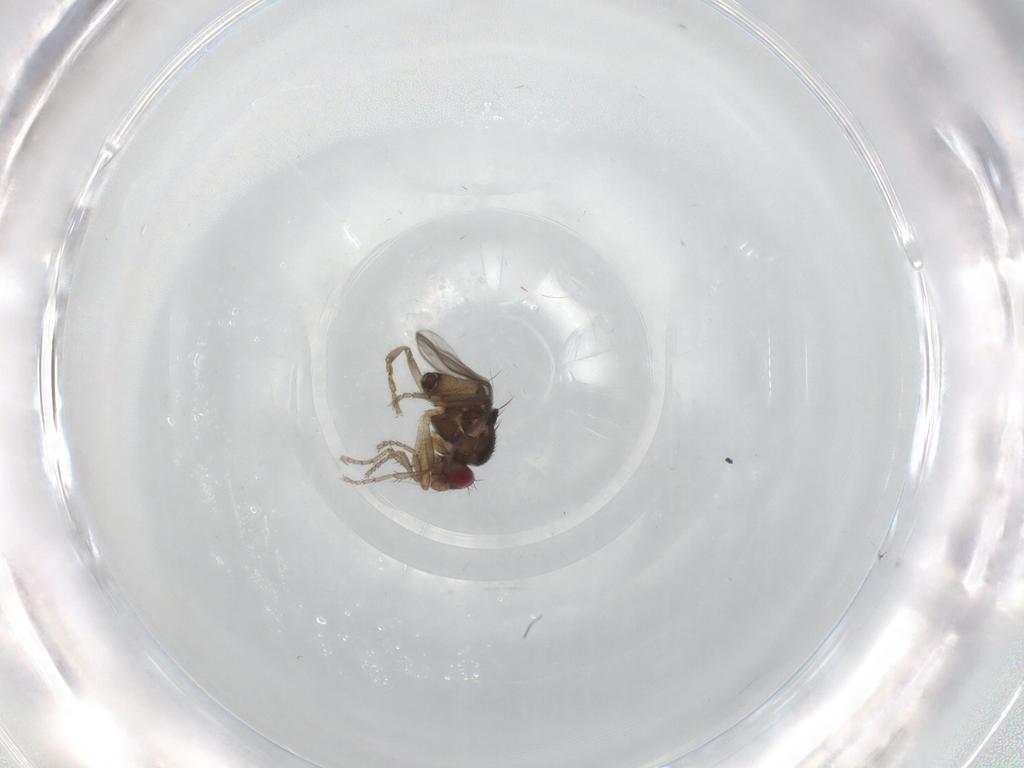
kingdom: Animalia
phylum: Arthropoda
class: Insecta
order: Diptera
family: Sphaeroceridae
